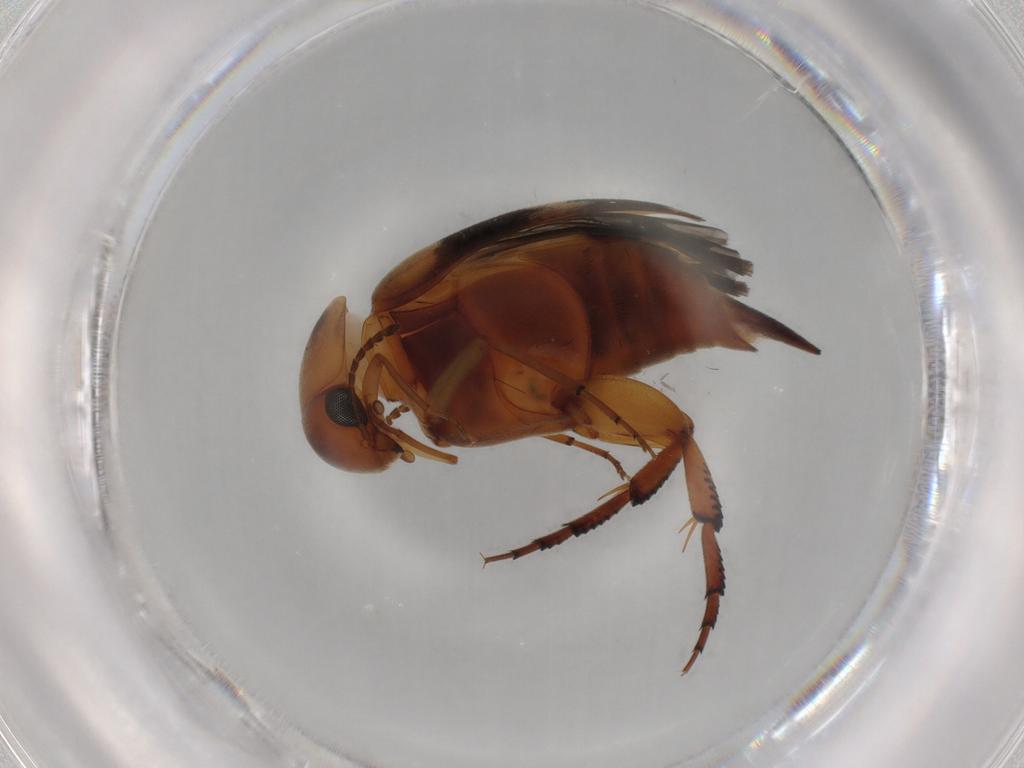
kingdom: Animalia
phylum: Arthropoda
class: Insecta
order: Coleoptera
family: Mordellidae
